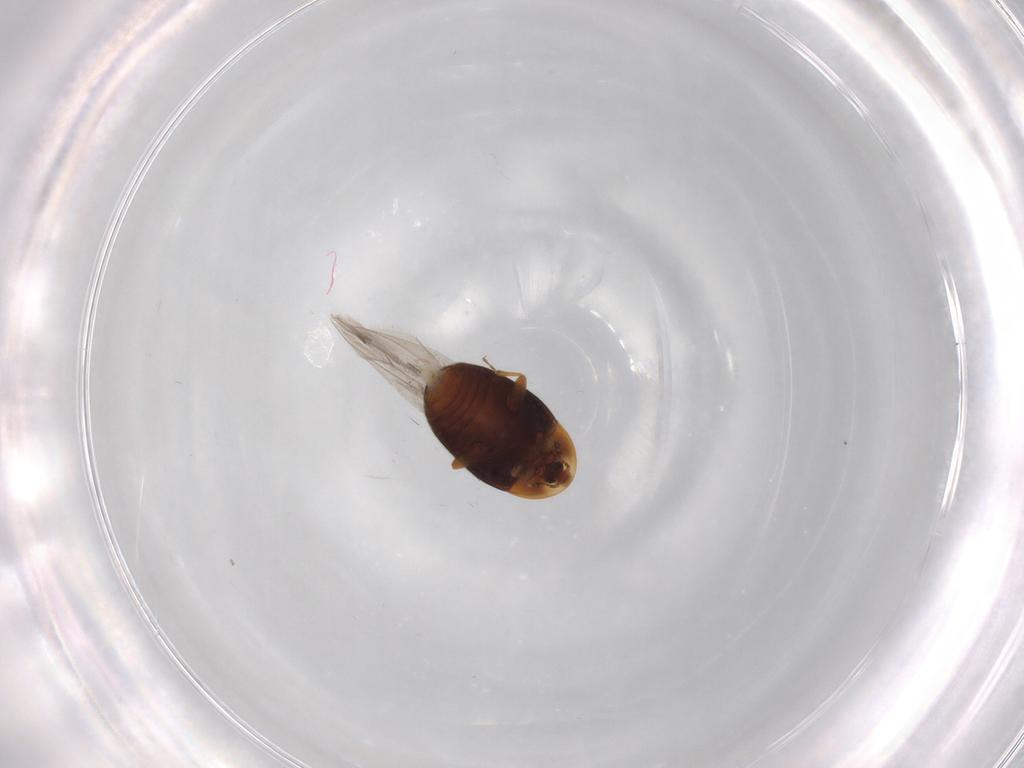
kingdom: Animalia
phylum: Arthropoda
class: Insecta
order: Coleoptera
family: Corylophidae
